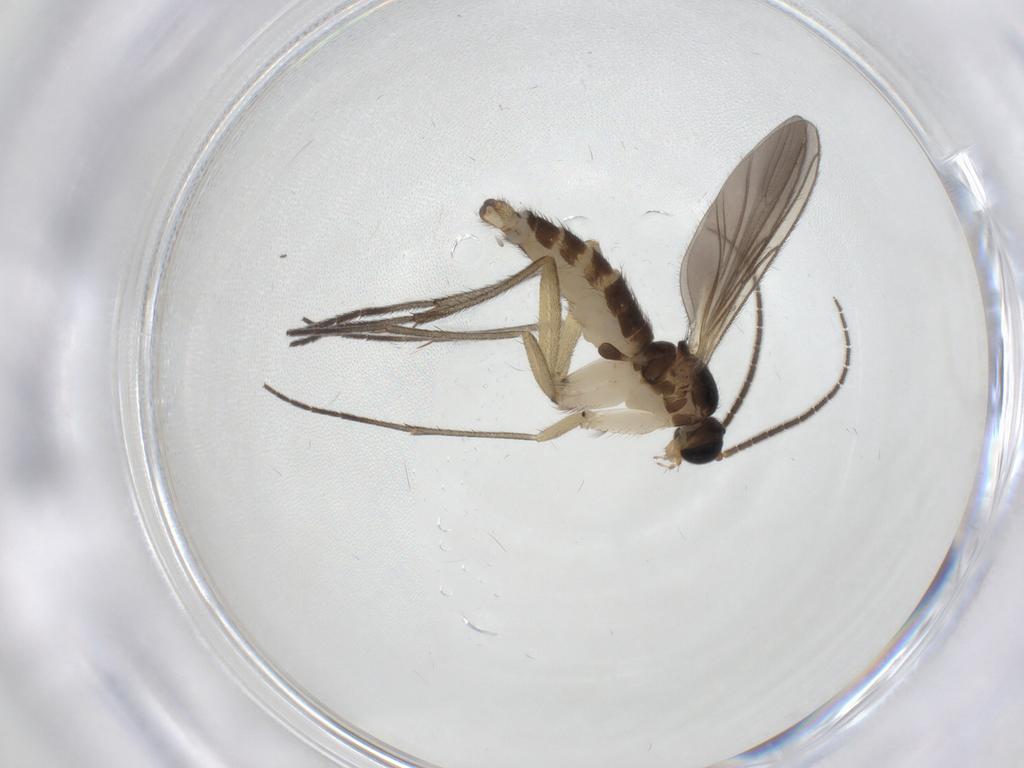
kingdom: Animalia
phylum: Arthropoda
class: Insecta
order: Diptera
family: Sciaridae
